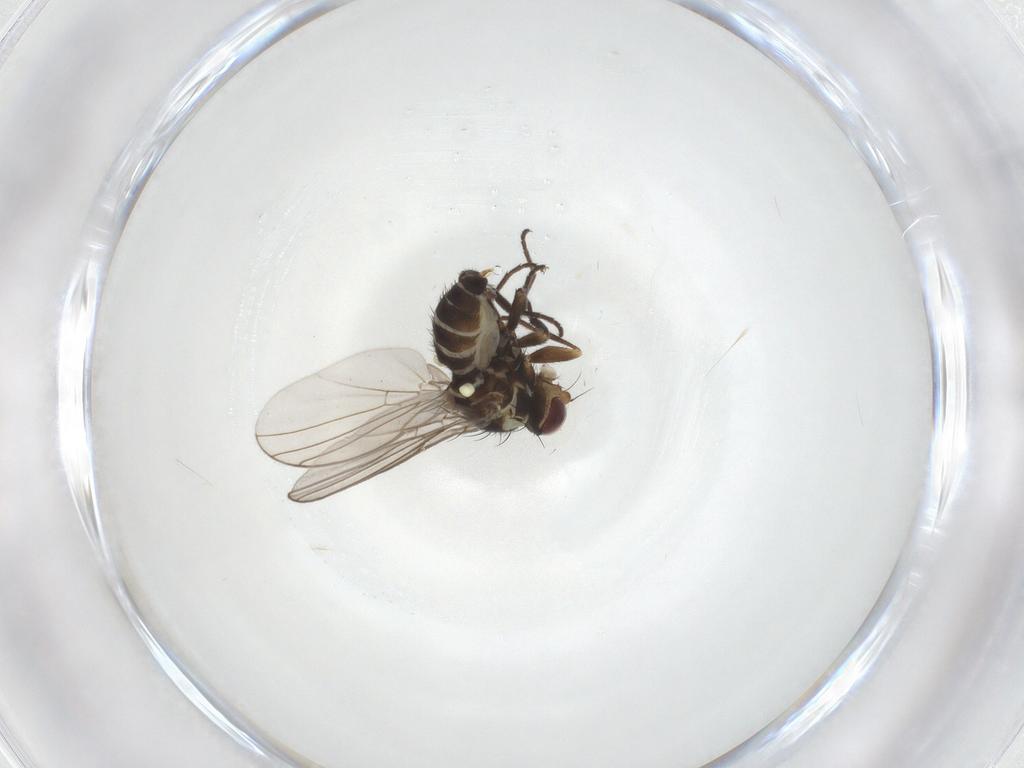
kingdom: Animalia
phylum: Arthropoda
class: Insecta
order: Diptera
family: Agromyzidae
